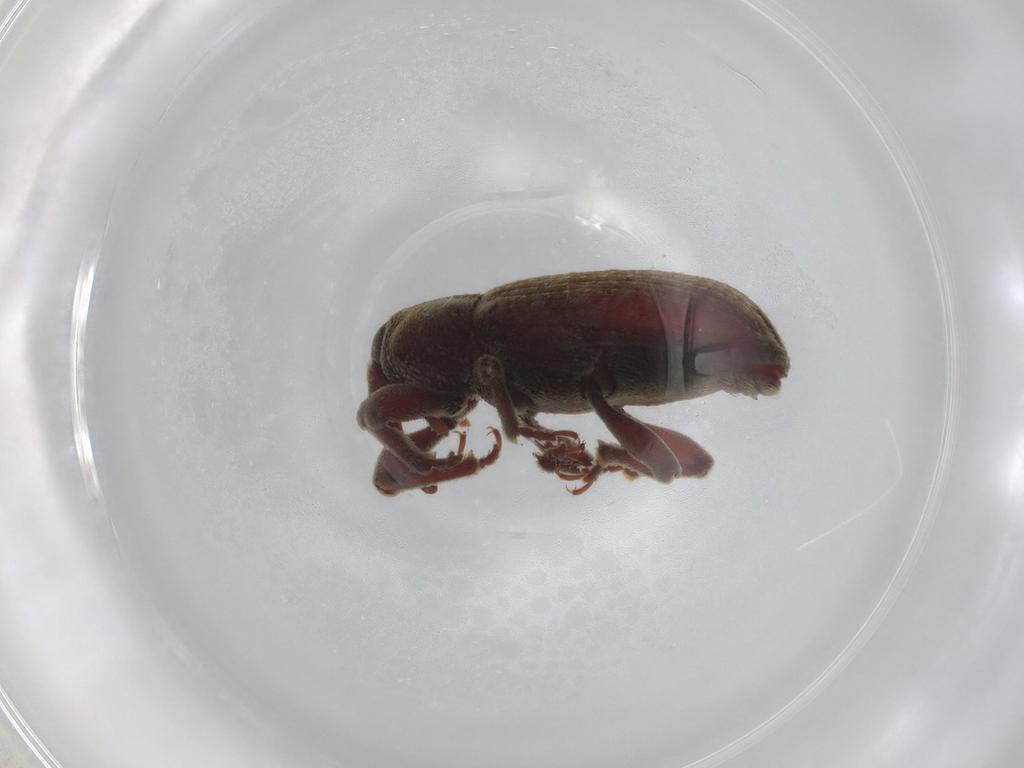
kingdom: Animalia
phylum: Arthropoda
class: Insecta
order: Coleoptera
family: Curculionidae
